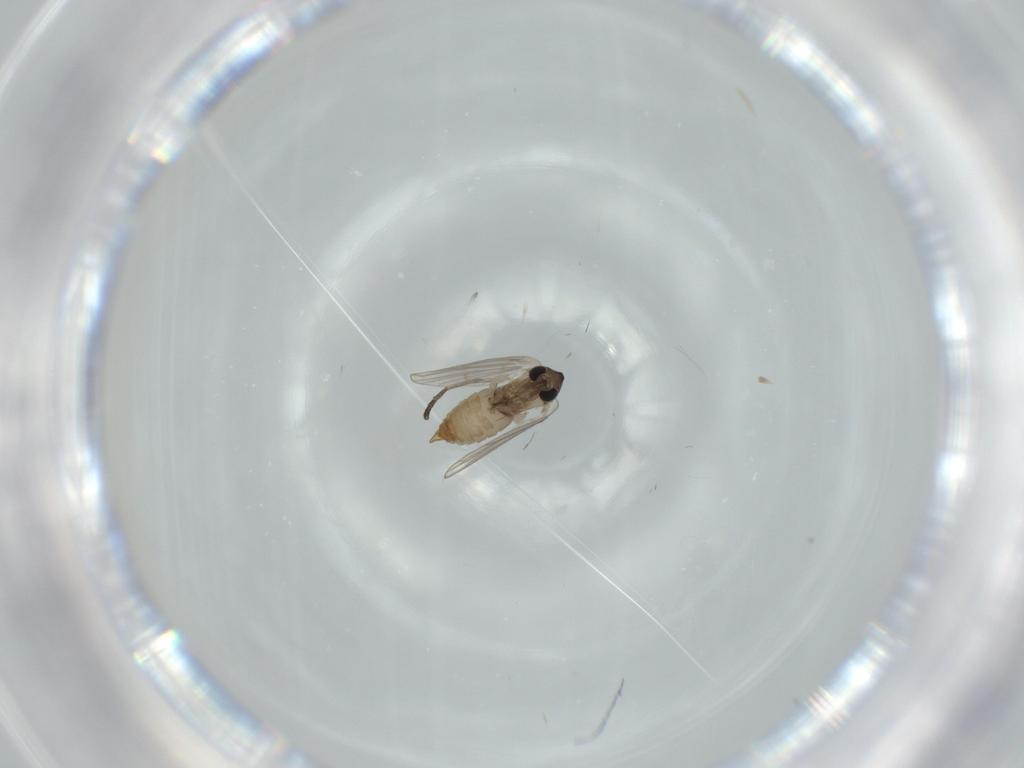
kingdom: Animalia
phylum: Arthropoda
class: Insecta
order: Diptera
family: Psychodidae
